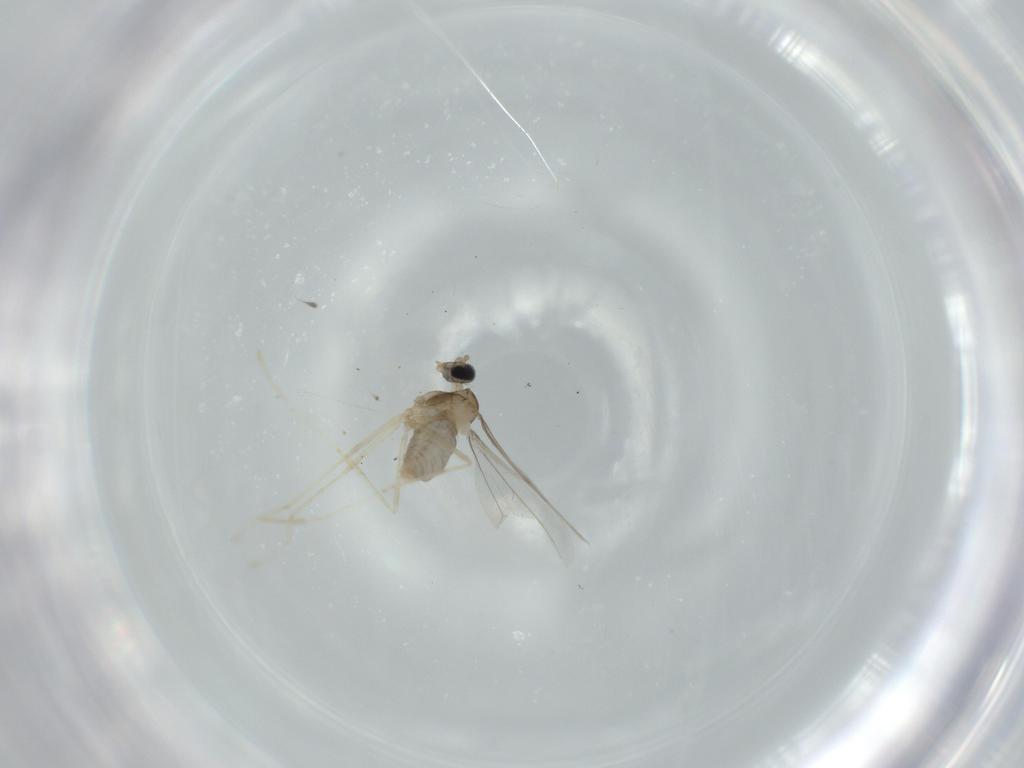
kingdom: Animalia
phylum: Arthropoda
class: Insecta
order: Diptera
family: Cecidomyiidae
